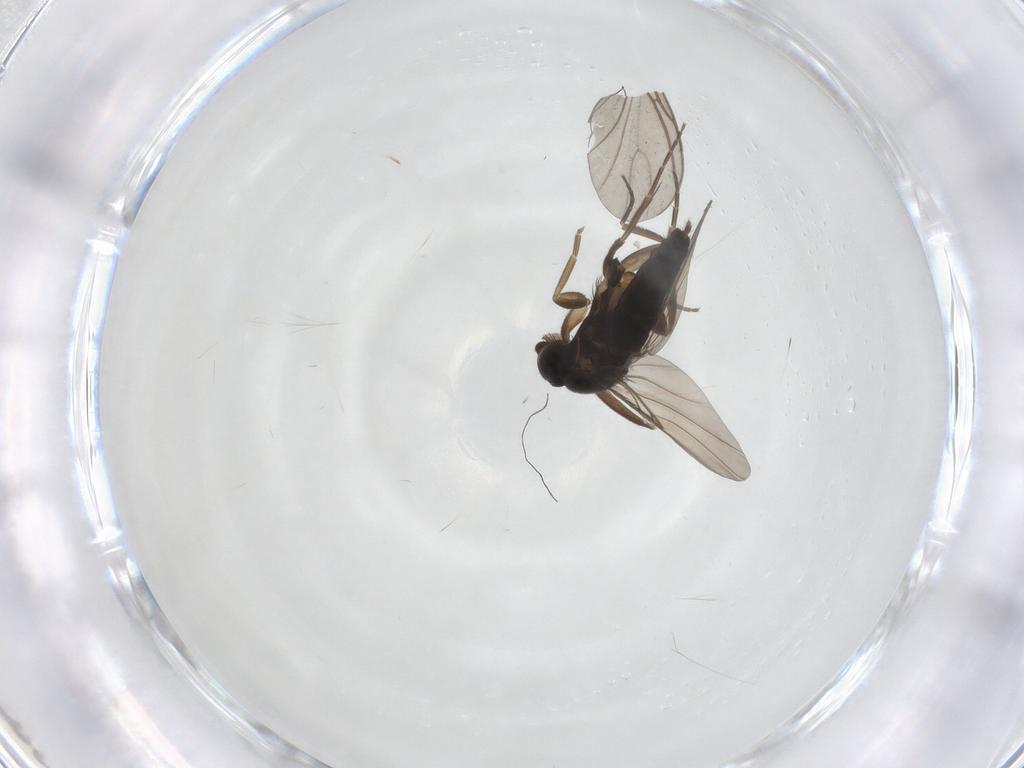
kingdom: Animalia
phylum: Arthropoda
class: Insecta
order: Diptera
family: Phoridae
